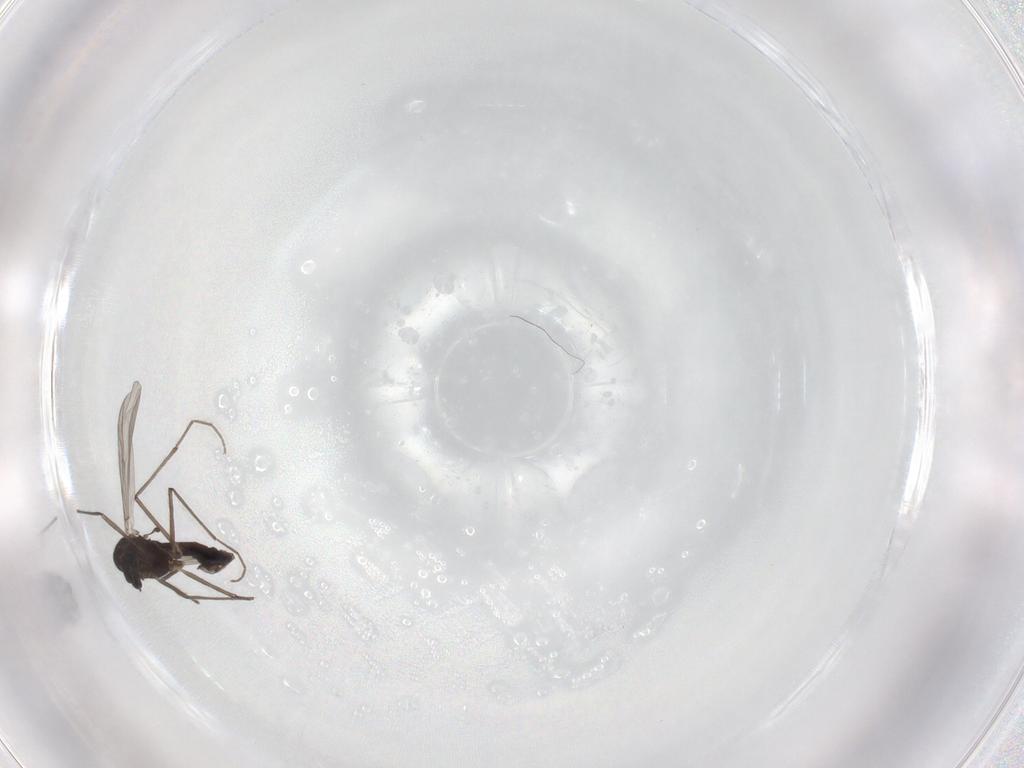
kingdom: Animalia
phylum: Arthropoda
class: Insecta
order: Diptera
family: Chironomidae
